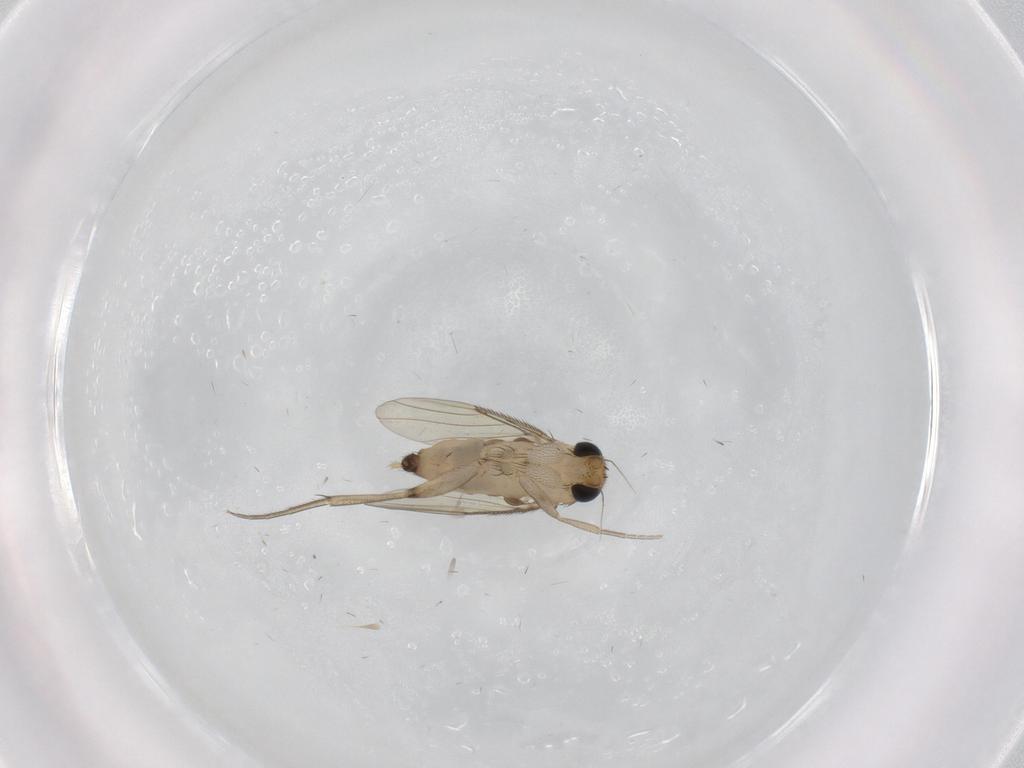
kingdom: Animalia
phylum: Arthropoda
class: Insecta
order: Diptera
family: Phoridae
